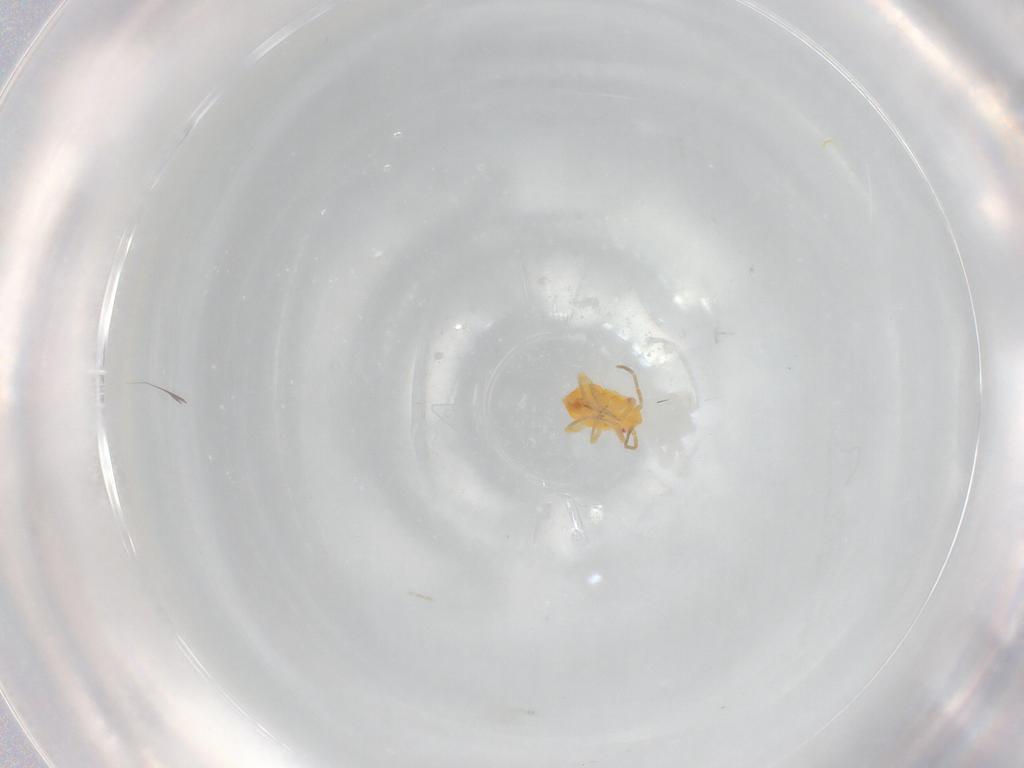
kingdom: Animalia
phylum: Arthropoda
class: Insecta
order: Hemiptera
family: Miridae
